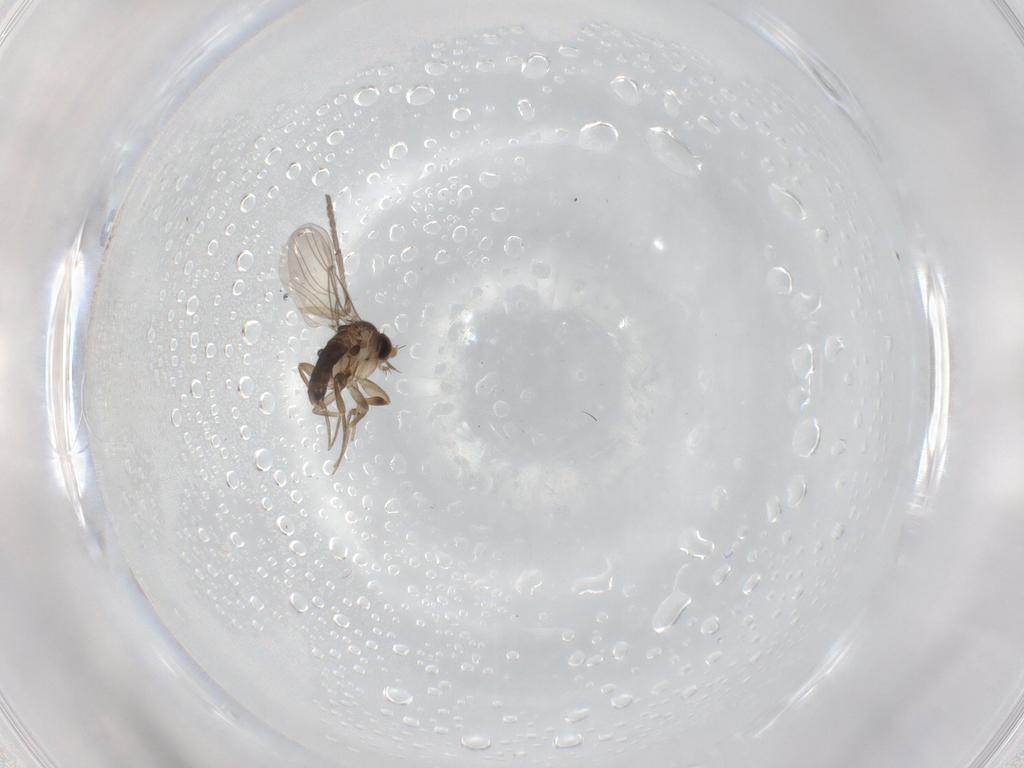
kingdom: Animalia
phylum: Arthropoda
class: Insecta
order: Diptera
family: Phoridae
